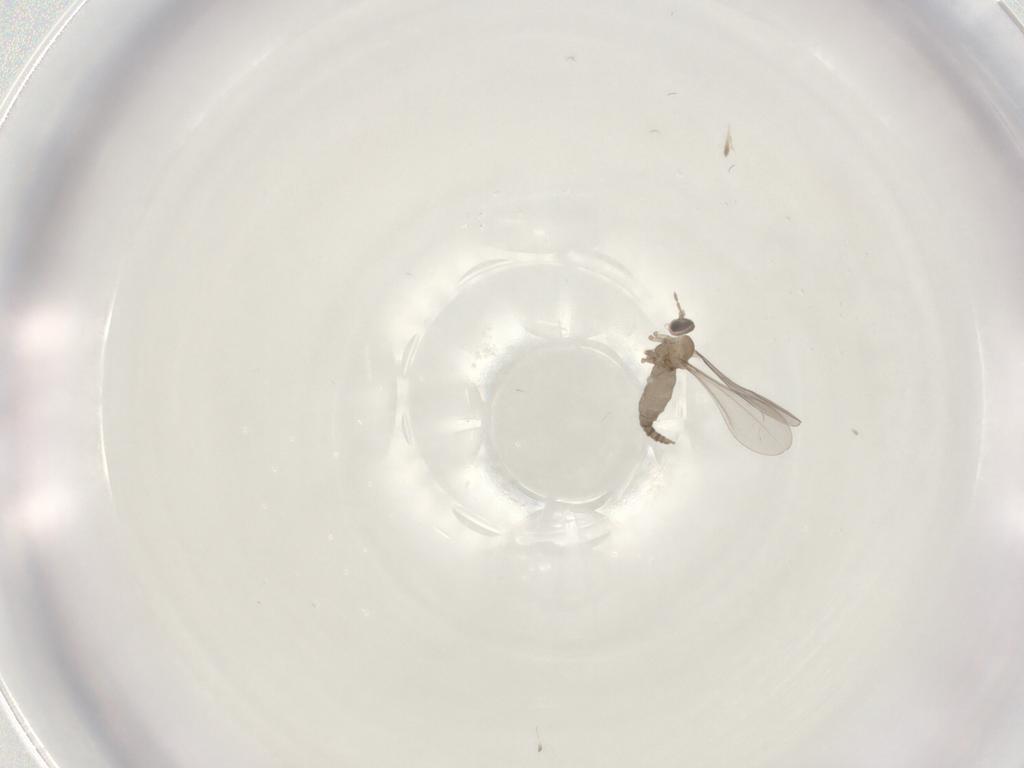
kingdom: Animalia
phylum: Arthropoda
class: Insecta
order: Diptera
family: Cecidomyiidae
